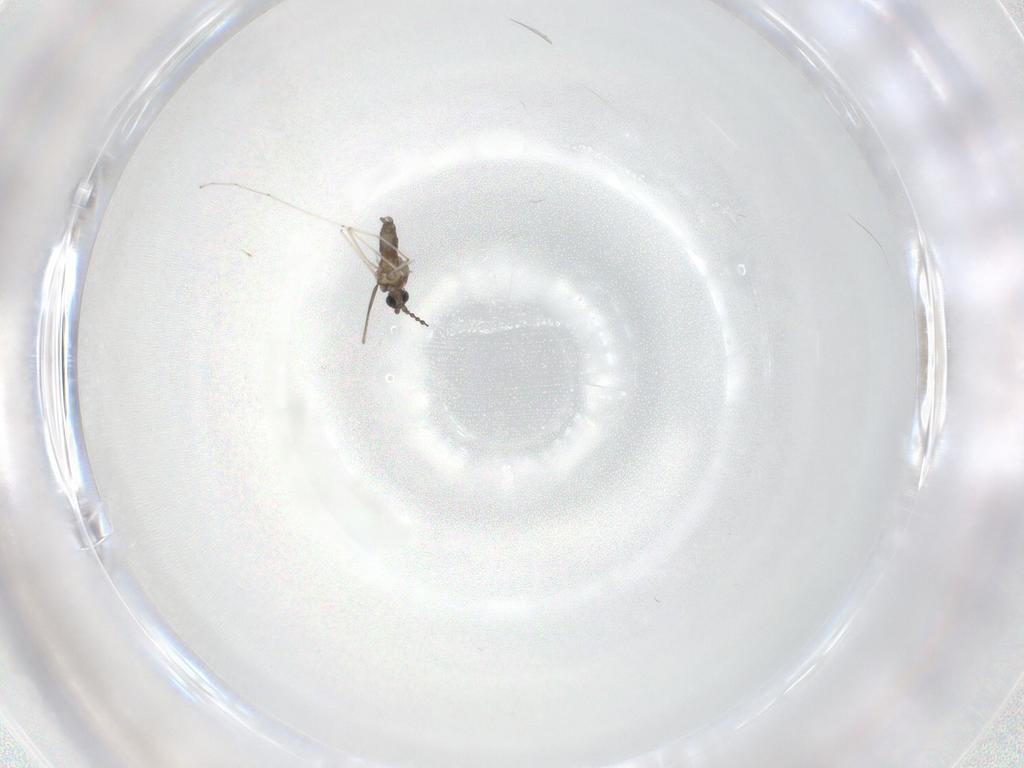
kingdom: Animalia
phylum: Arthropoda
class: Insecta
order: Diptera
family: Cecidomyiidae
